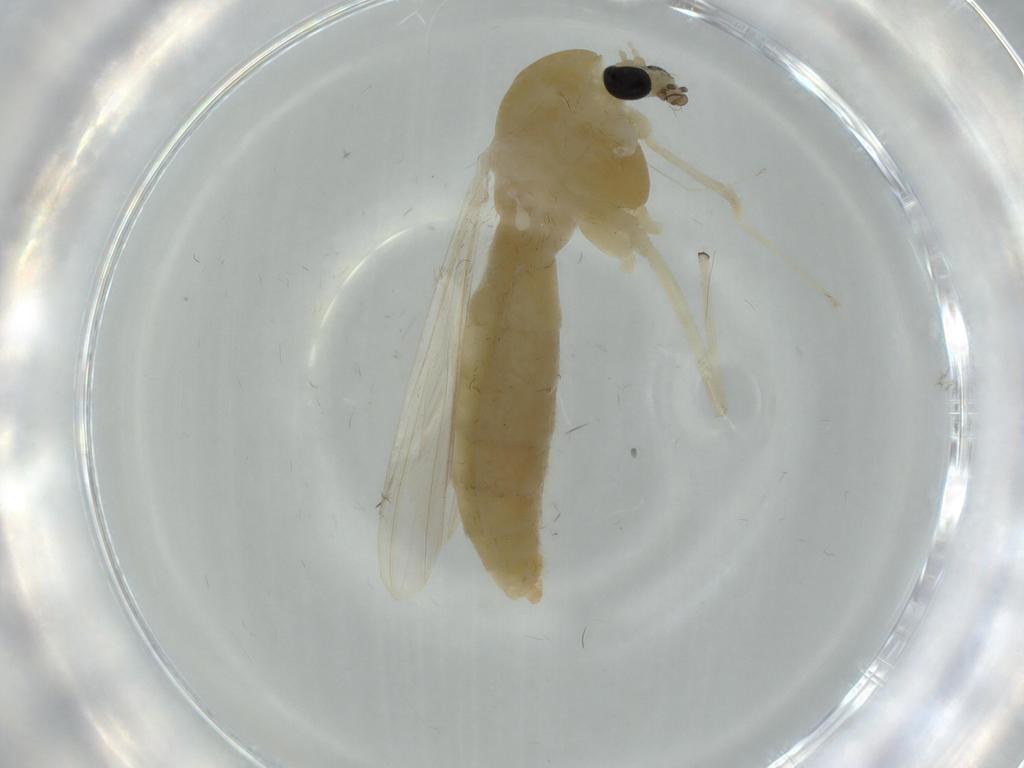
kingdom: Animalia
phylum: Arthropoda
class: Insecta
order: Diptera
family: Chironomidae
